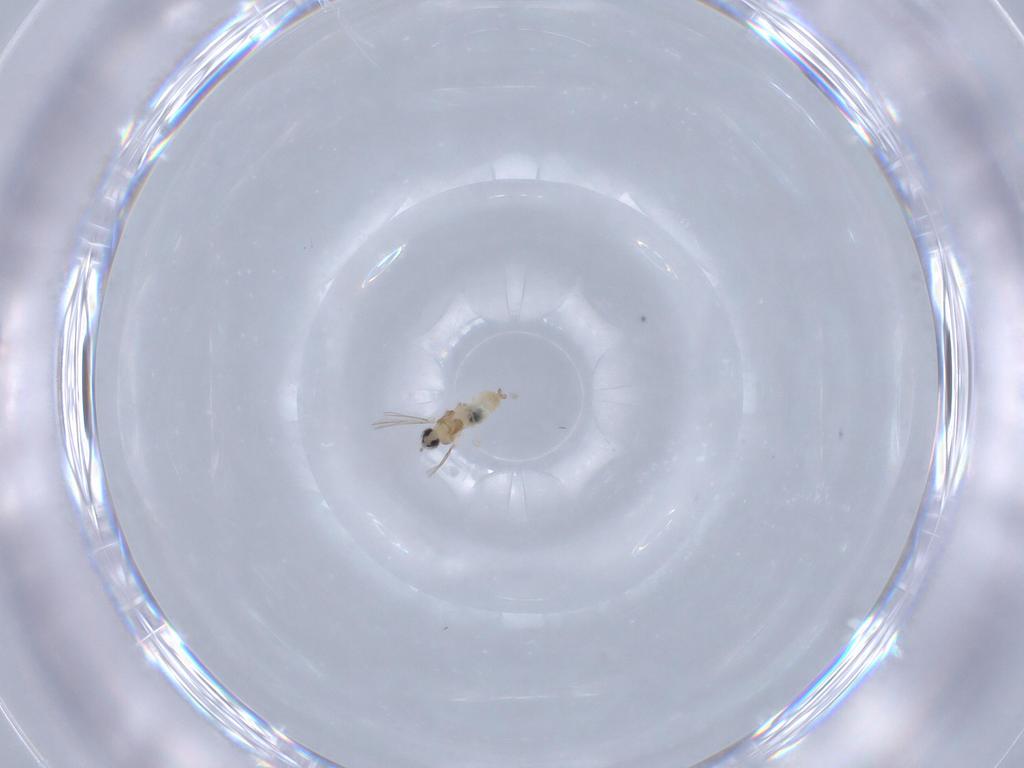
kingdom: Animalia
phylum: Arthropoda
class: Insecta
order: Diptera
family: Cecidomyiidae
